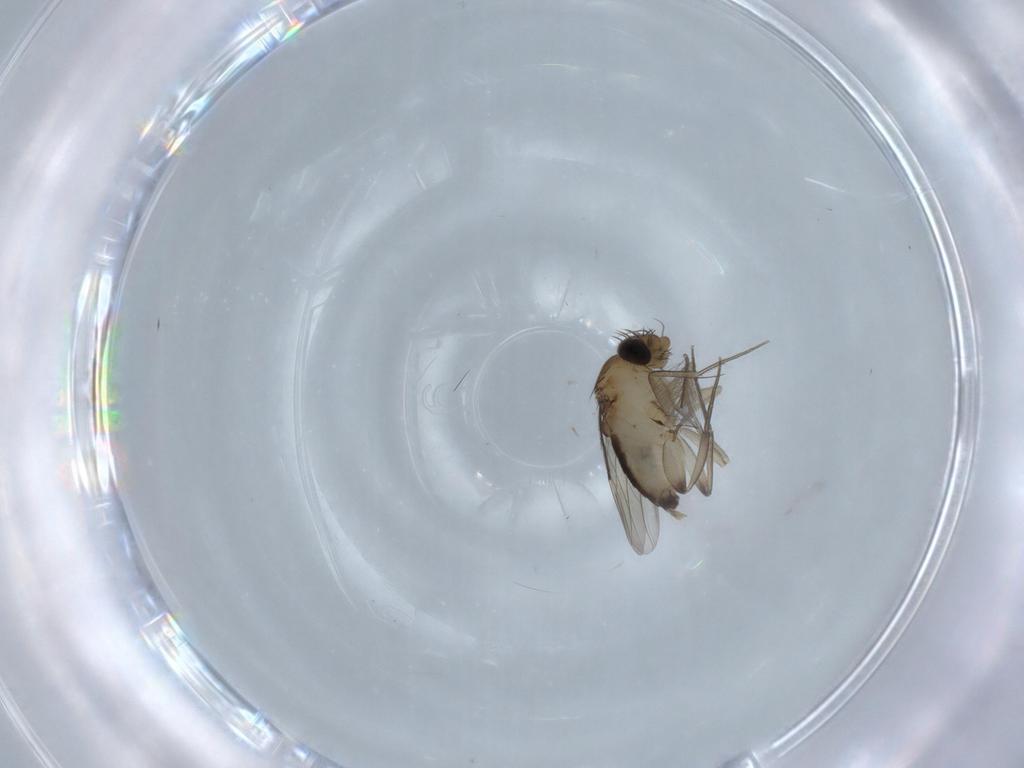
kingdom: Animalia
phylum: Arthropoda
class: Insecta
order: Diptera
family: Phoridae
